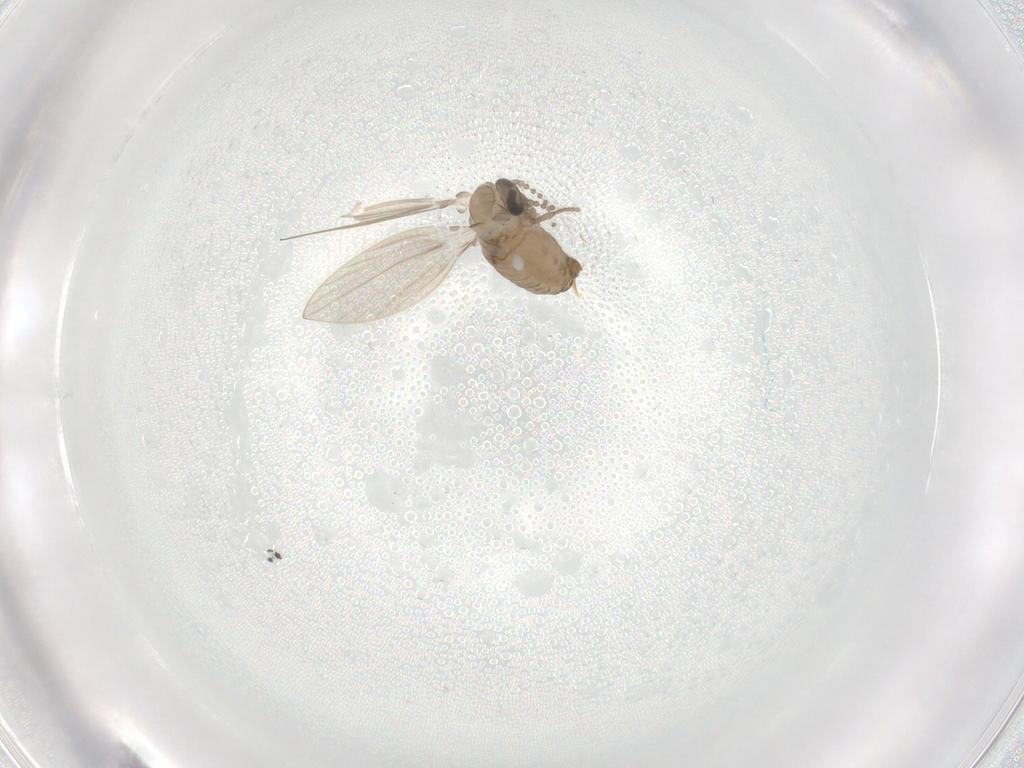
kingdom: Animalia
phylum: Arthropoda
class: Insecta
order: Diptera
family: Psychodidae
